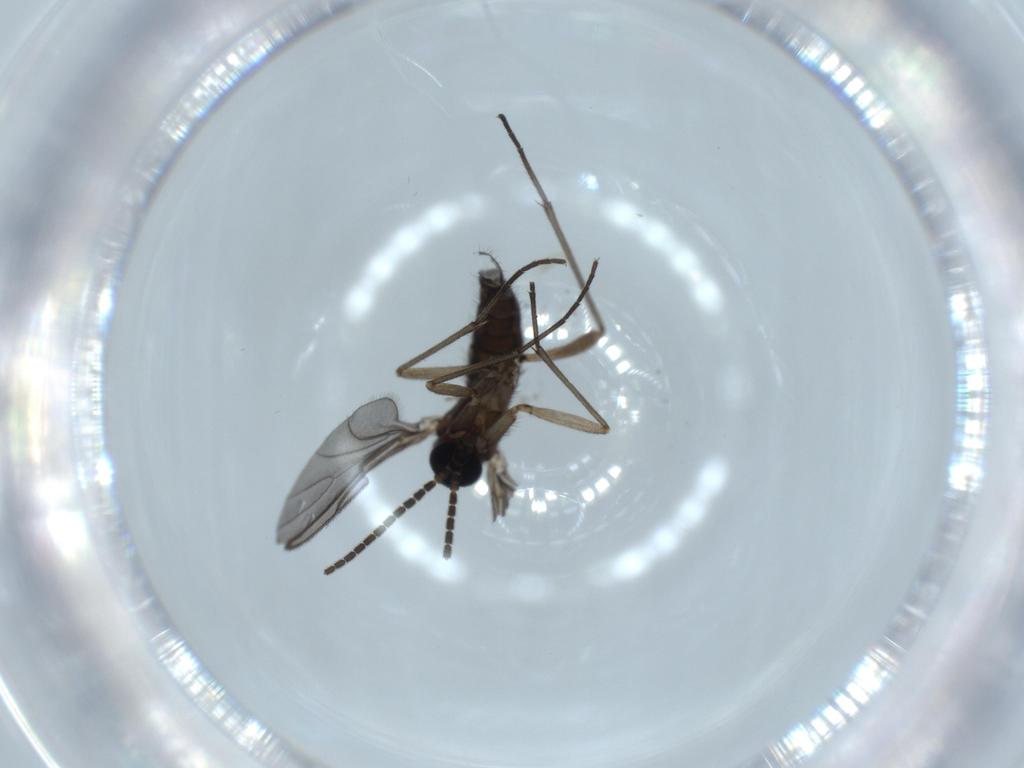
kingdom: Animalia
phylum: Arthropoda
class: Insecta
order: Diptera
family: Sciaridae
